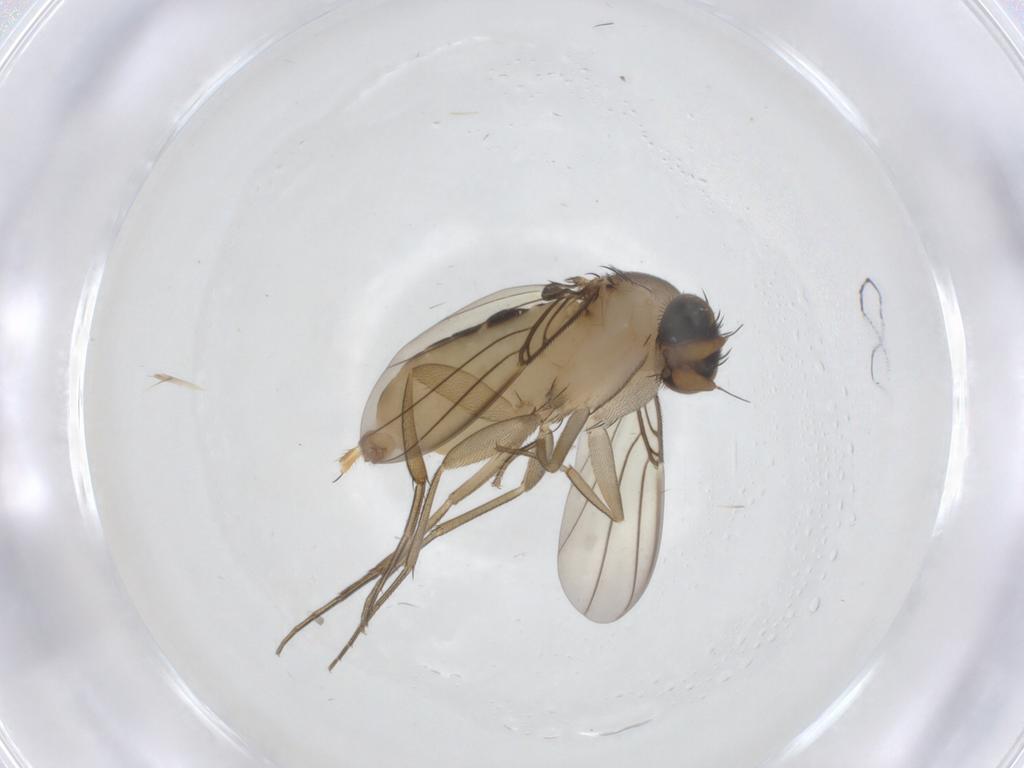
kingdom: Animalia
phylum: Arthropoda
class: Insecta
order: Diptera
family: Phoridae
